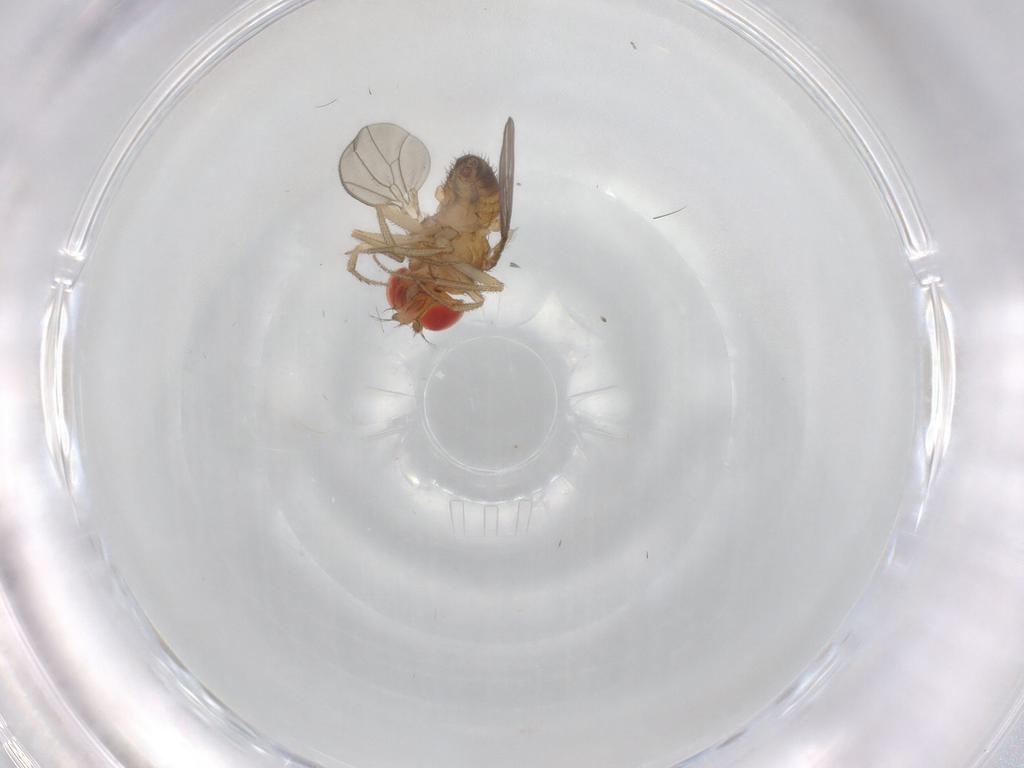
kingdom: Animalia
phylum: Arthropoda
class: Insecta
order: Diptera
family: Drosophilidae
